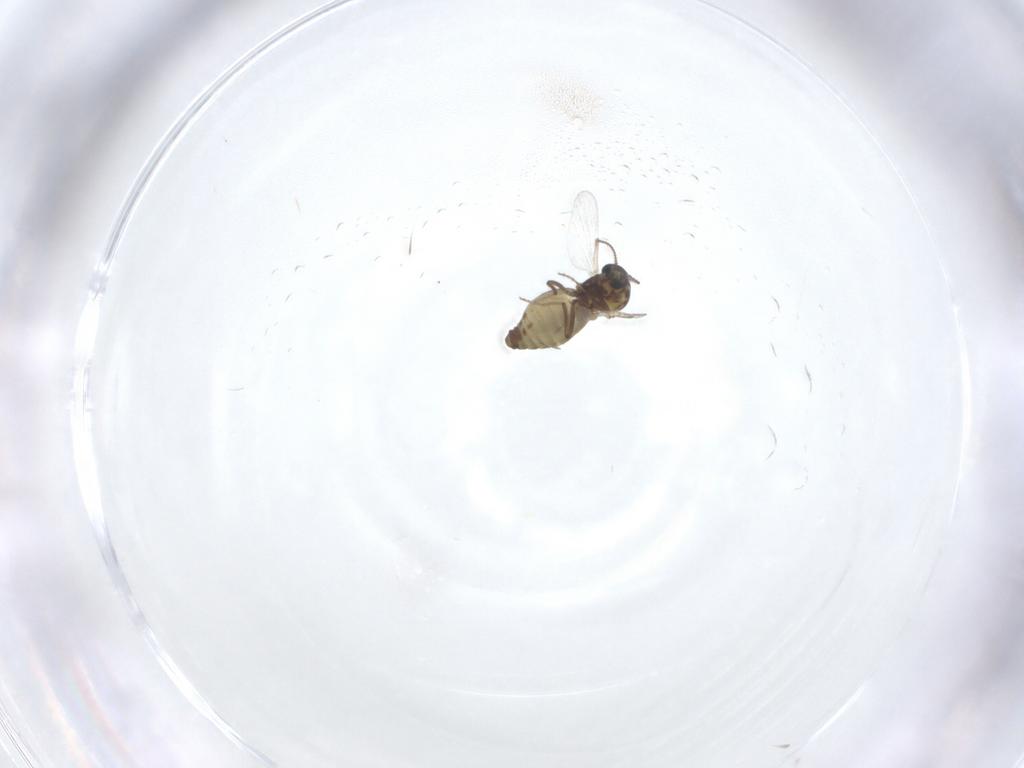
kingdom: Animalia
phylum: Arthropoda
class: Insecta
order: Diptera
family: Ceratopogonidae
